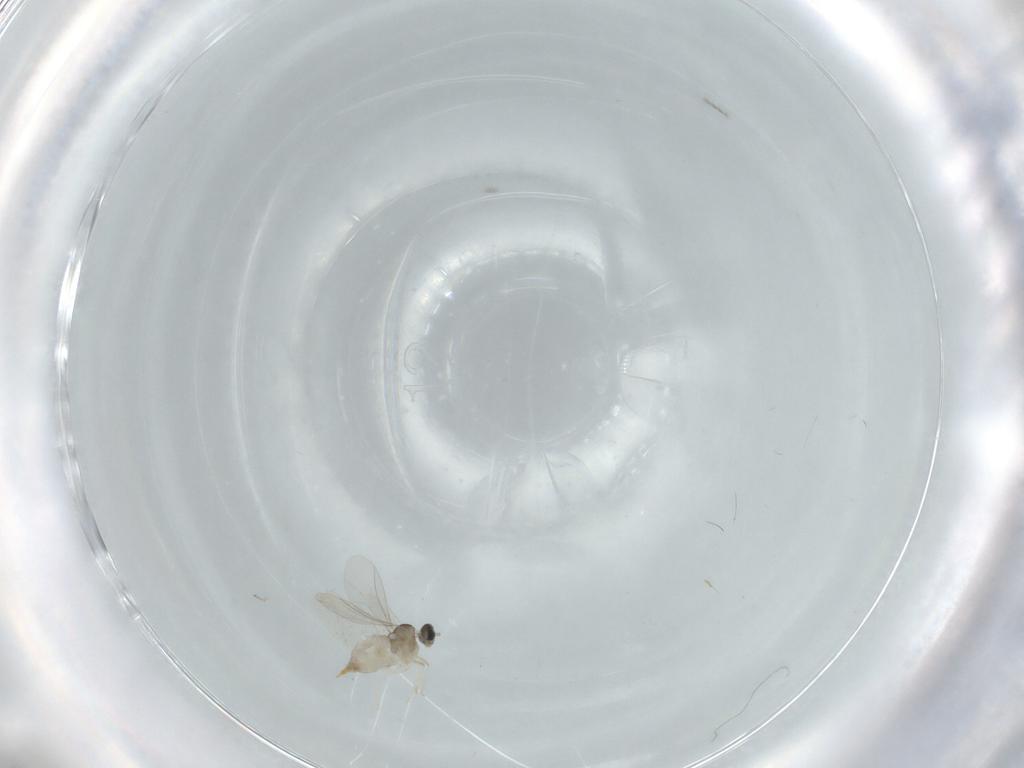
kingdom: Animalia
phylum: Arthropoda
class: Insecta
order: Diptera
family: Cecidomyiidae
